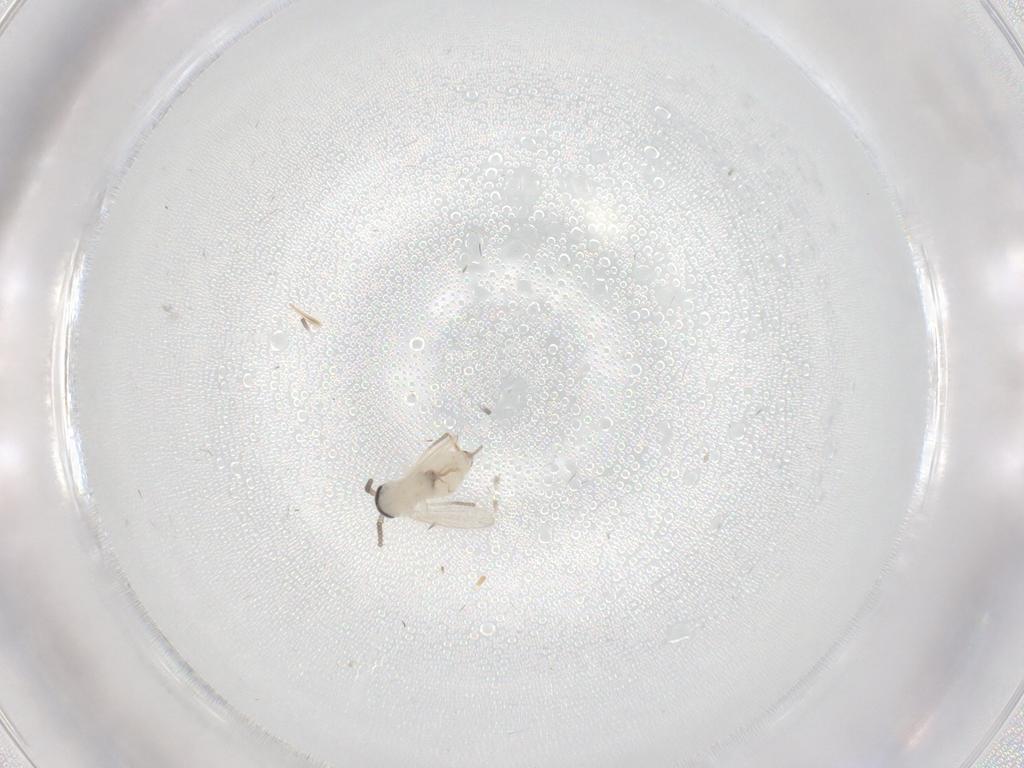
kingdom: Animalia
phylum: Arthropoda
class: Insecta
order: Diptera
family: Psychodidae
